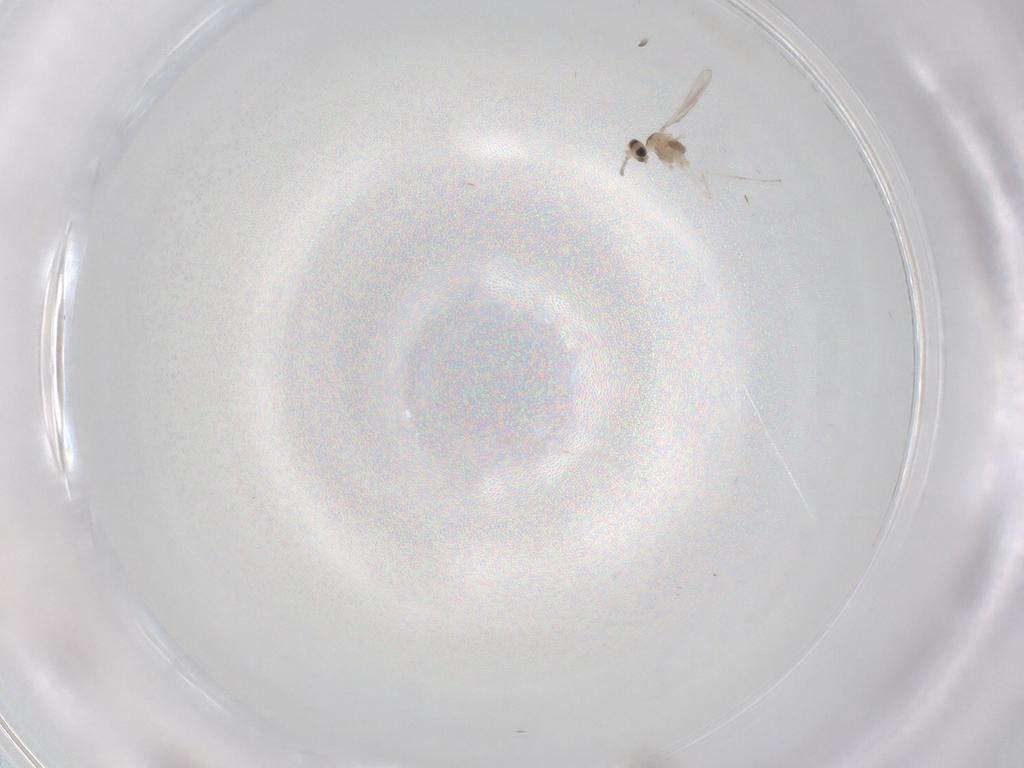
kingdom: Animalia
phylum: Arthropoda
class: Insecta
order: Diptera
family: Cecidomyiidae
